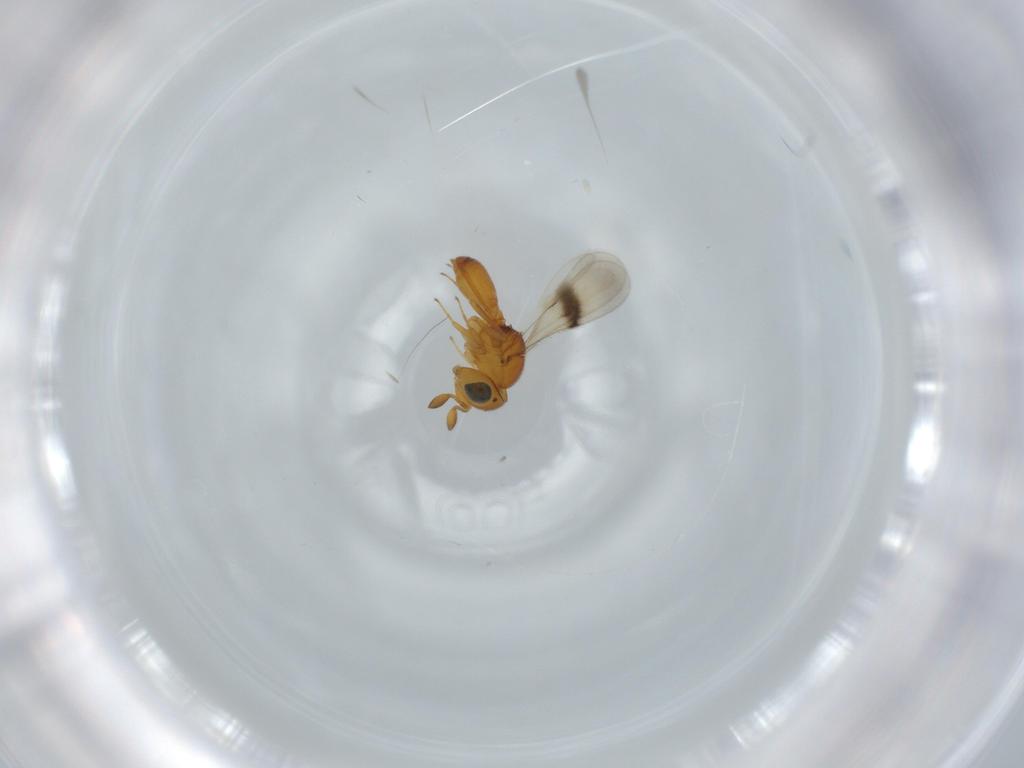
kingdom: Animalia
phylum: Arthropoda
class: Insecta
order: Hymenoptera
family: Scelionidae
